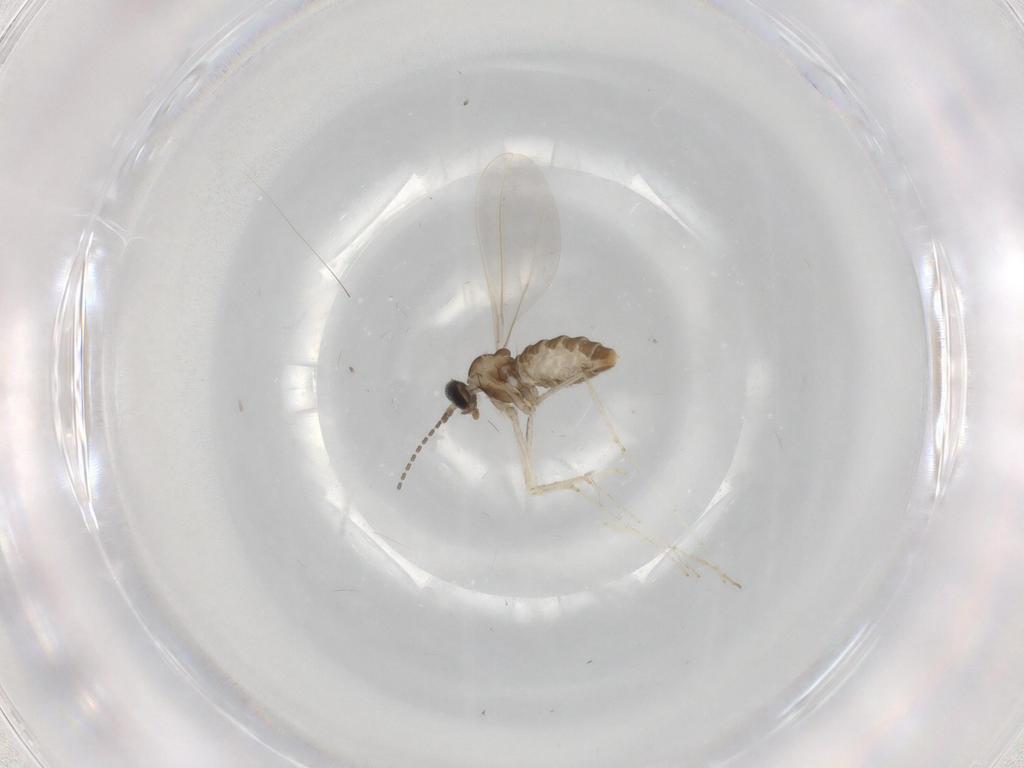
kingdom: Animalia
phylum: Arthropoda
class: Insecta
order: Diptera
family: Cecidomyiidae
